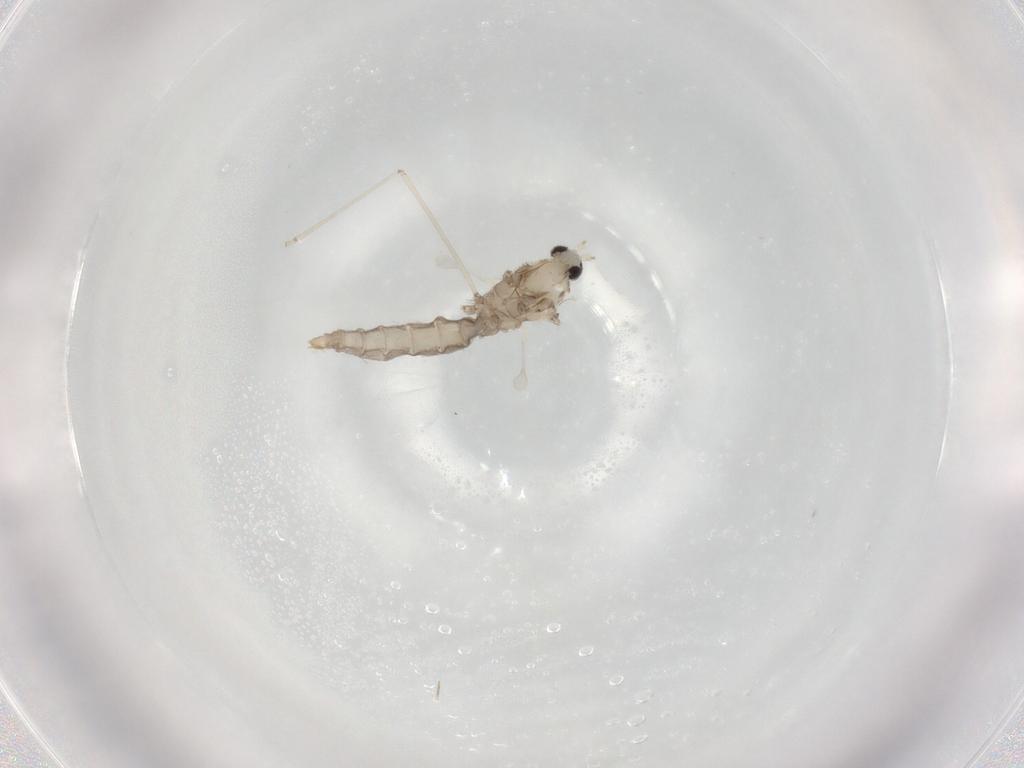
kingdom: Animalia
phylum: Arthropoda
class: Insecta
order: Diptera
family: Cecidomyiidae
